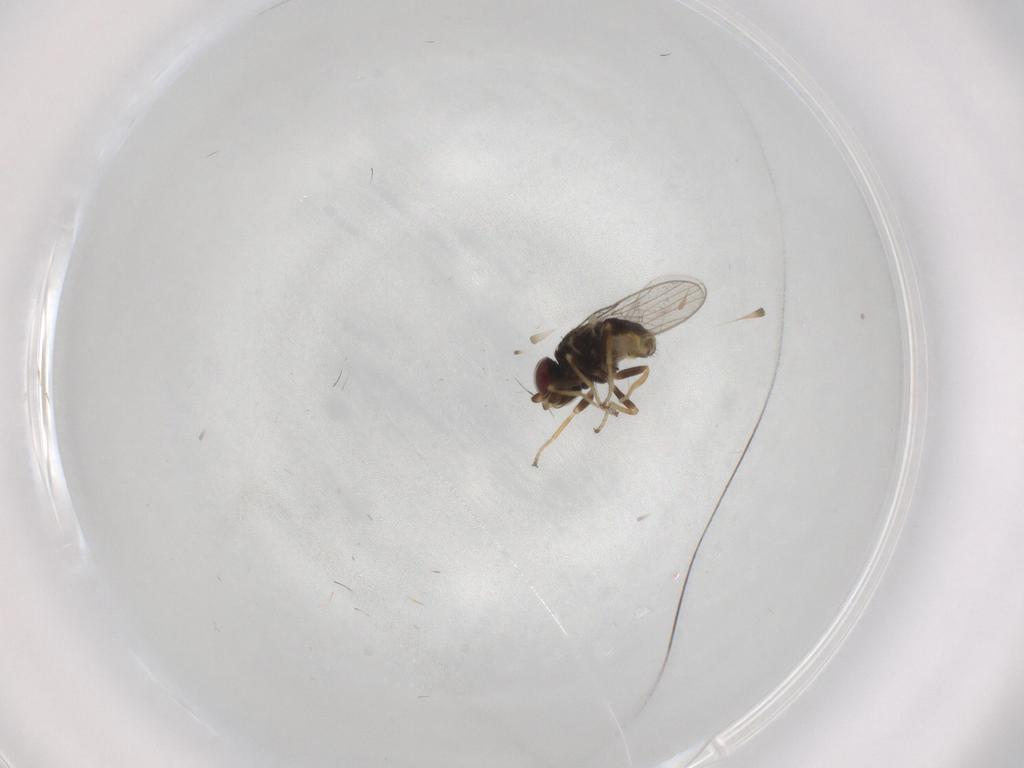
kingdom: Animalia
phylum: Arthropoda
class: Insecta
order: Diptera
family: Chloropidae
